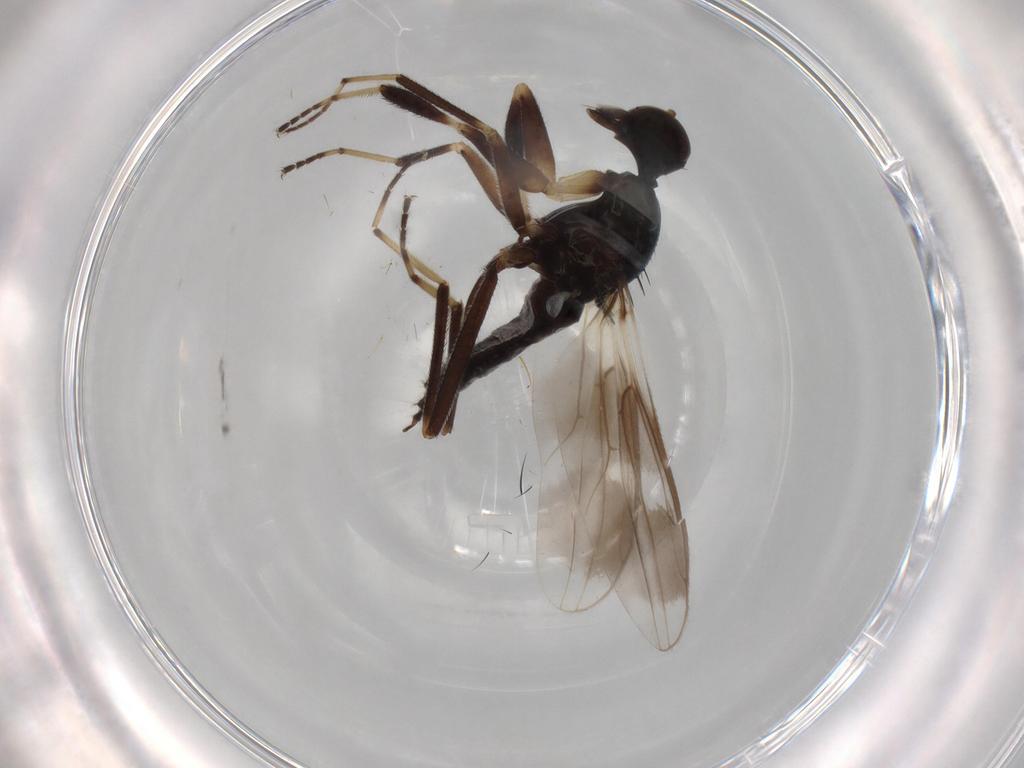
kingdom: Animalia
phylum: Arthropoda
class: Insecta
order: Diptera
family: Hybotidae
